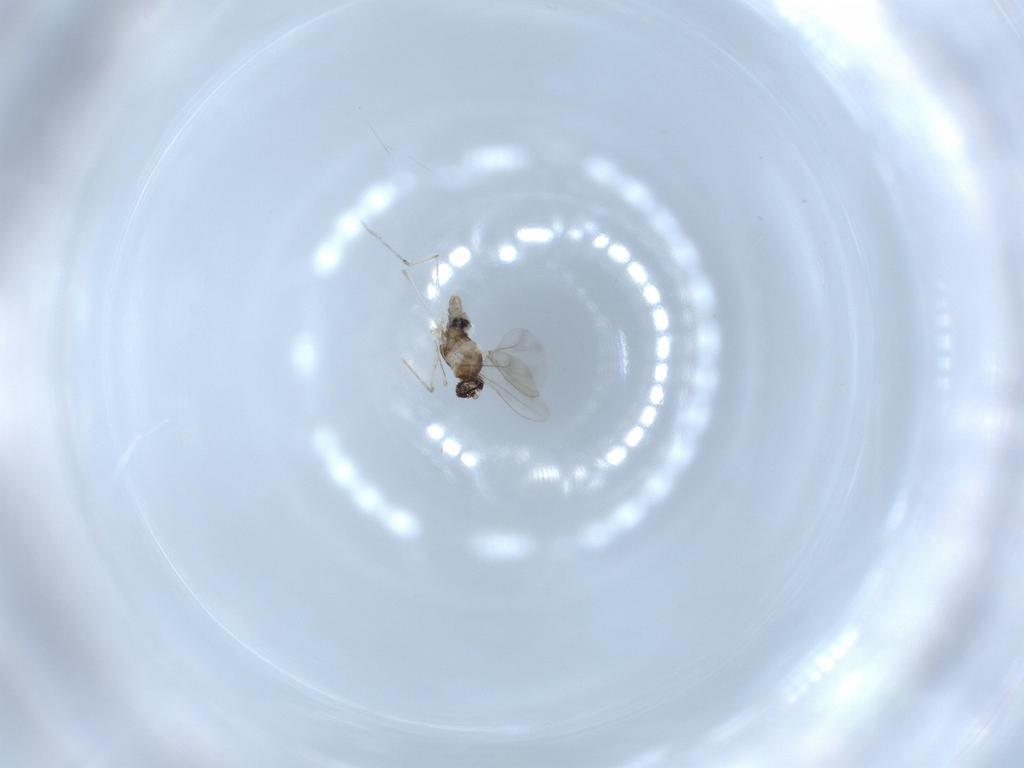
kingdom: Animalia
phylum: Arthropoda
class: Insecta
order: Diptera
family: Cecidomyiidae
